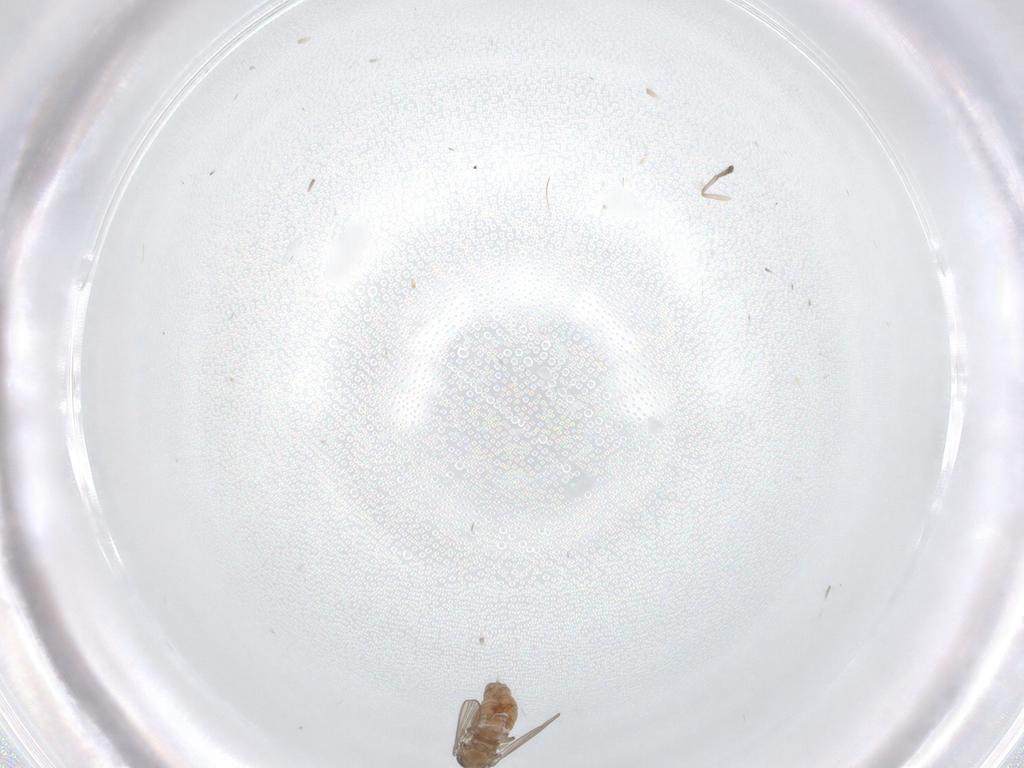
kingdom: Animalia
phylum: Arthropoda
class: Insecta
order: Diptera
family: Psychodidae
